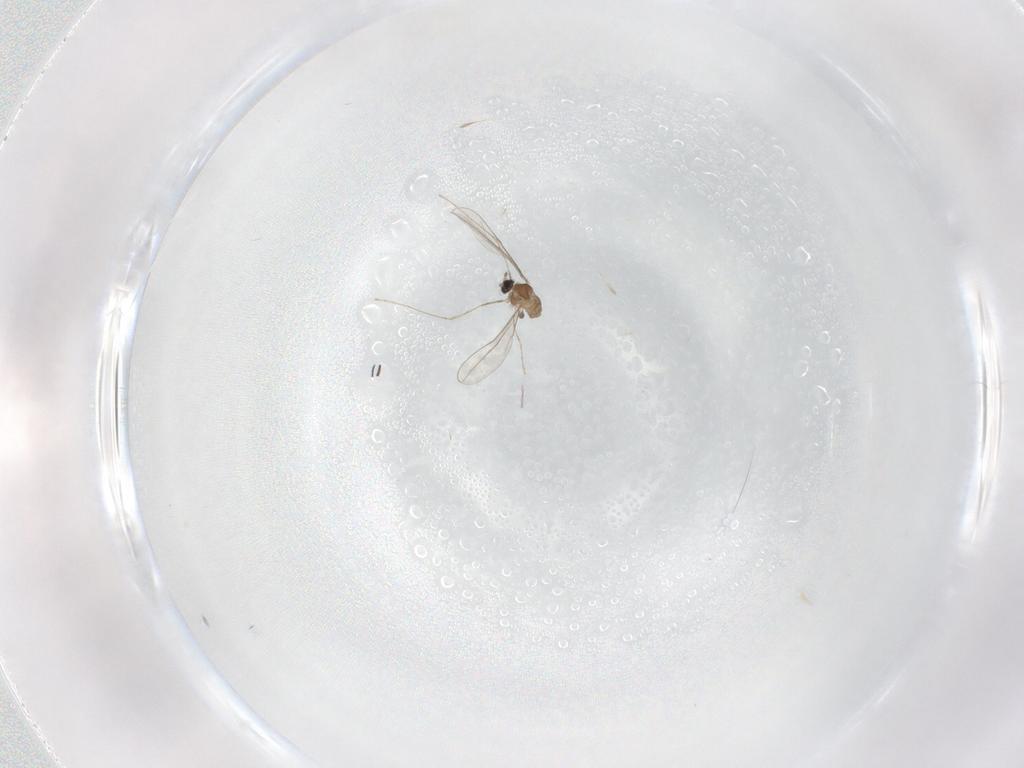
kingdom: Animalia
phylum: Arthropoda
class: Insecta
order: Diptera
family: Cecidomyiidae
